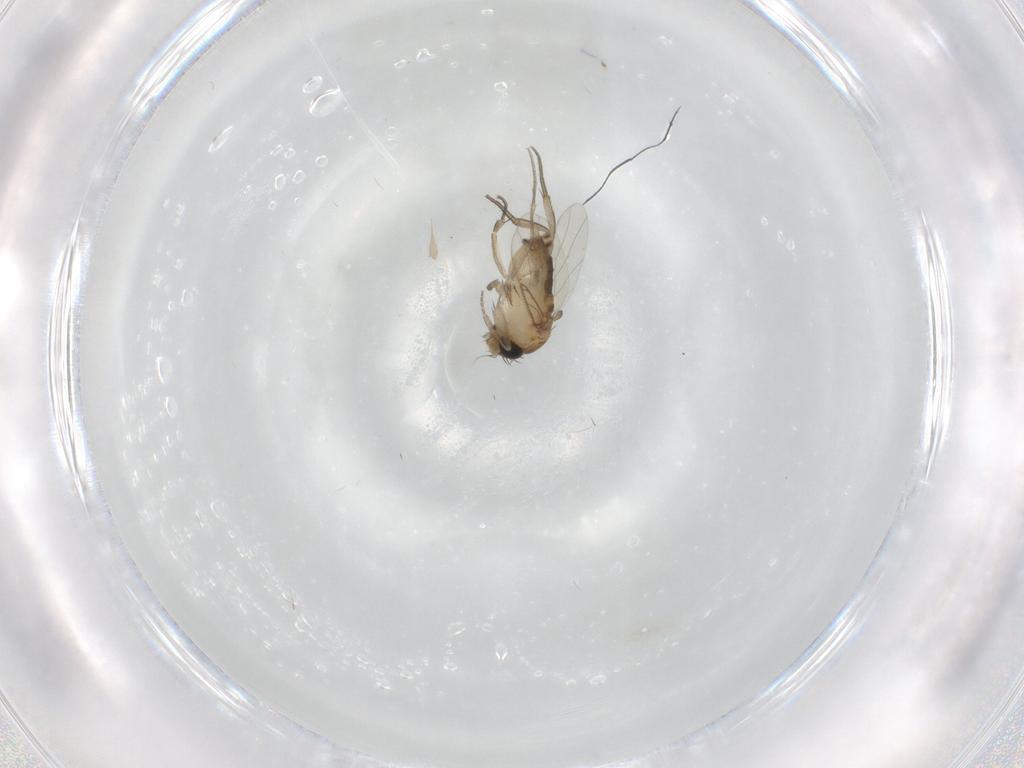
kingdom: Animalia
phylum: Arthropoda
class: Insecta
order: Diptera
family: Phoridae
